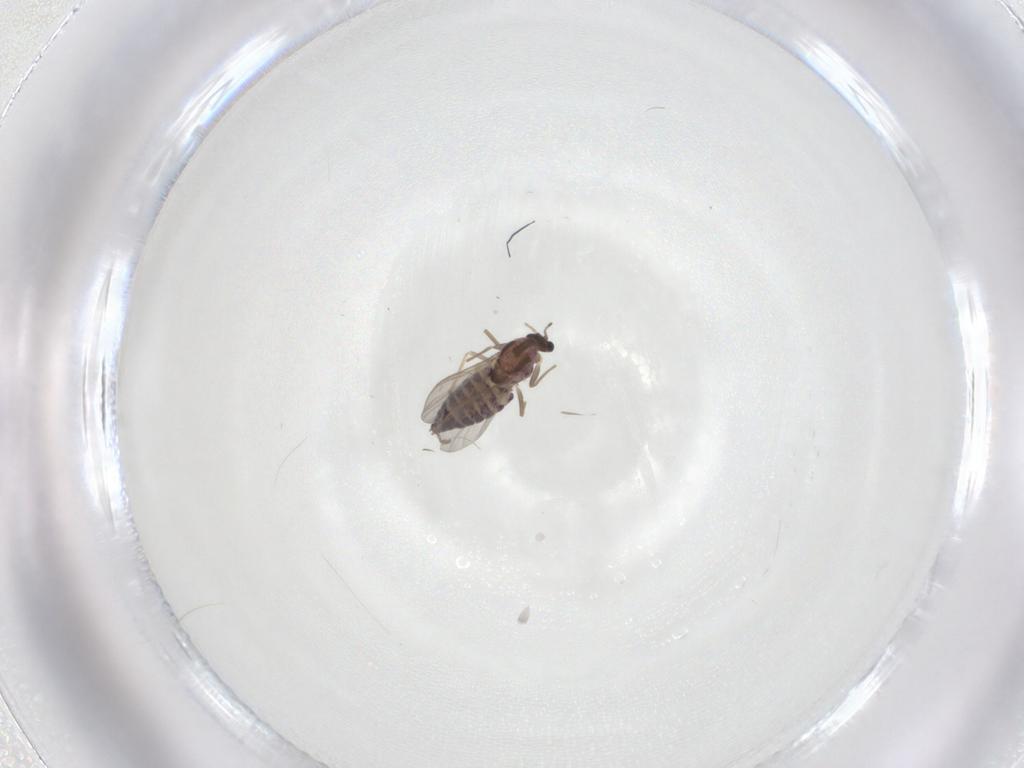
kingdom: Animalia
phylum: Arthropoda
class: Insecta
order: Diptera
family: Chironomidae
